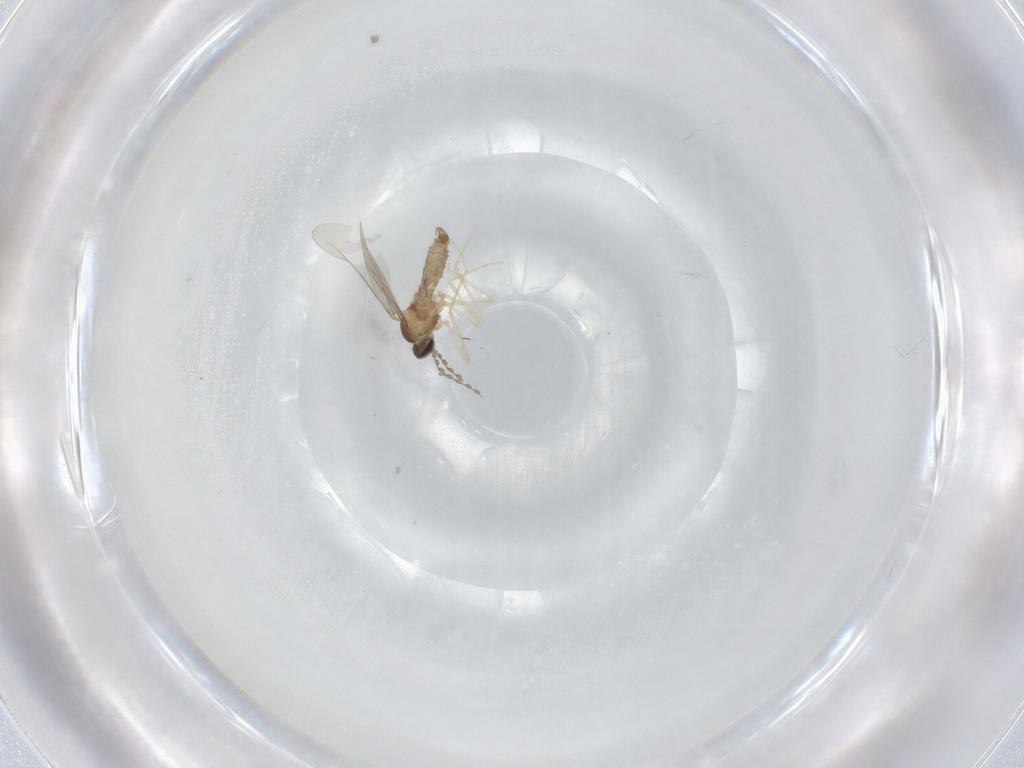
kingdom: Animalia
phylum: Arthropoda
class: Insecta
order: Diptera
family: Cecidomyiidae
